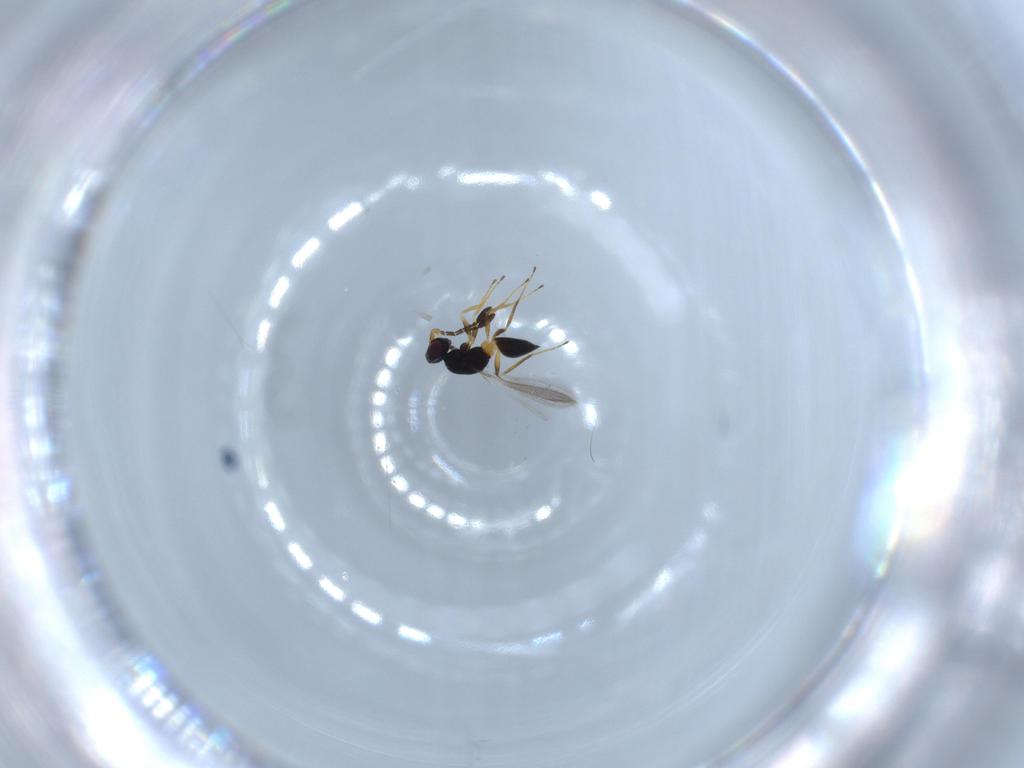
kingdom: Animalia
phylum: Arthropoda
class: Insecta
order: Hymenoptera
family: Mymaridae
